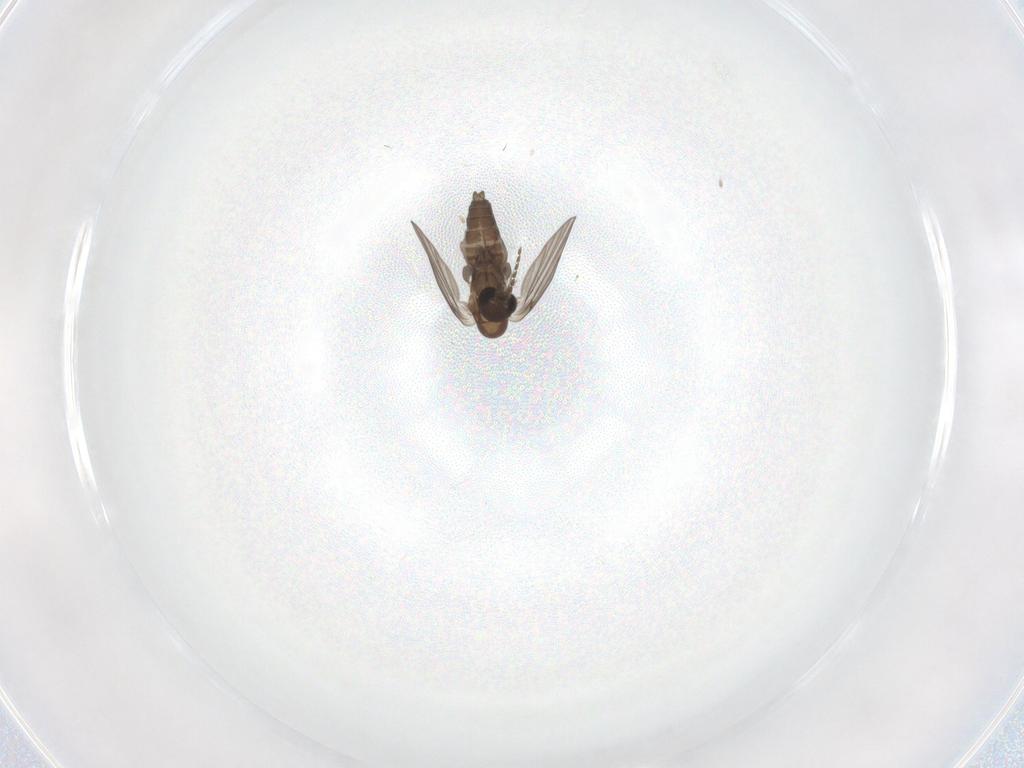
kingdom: Animalia
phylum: Arthropoda
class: Insecta
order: Diptera
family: Phoridae
